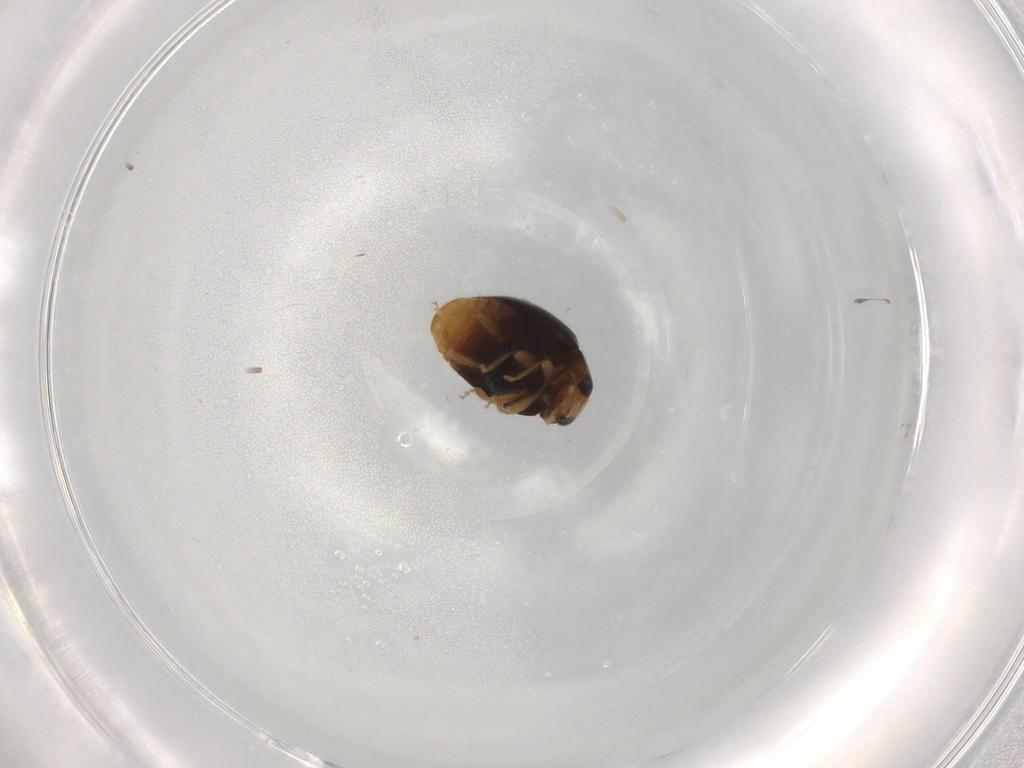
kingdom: Animalia
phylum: Arthropoda
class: Insecta
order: Coleoptera
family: Coccinellidae
